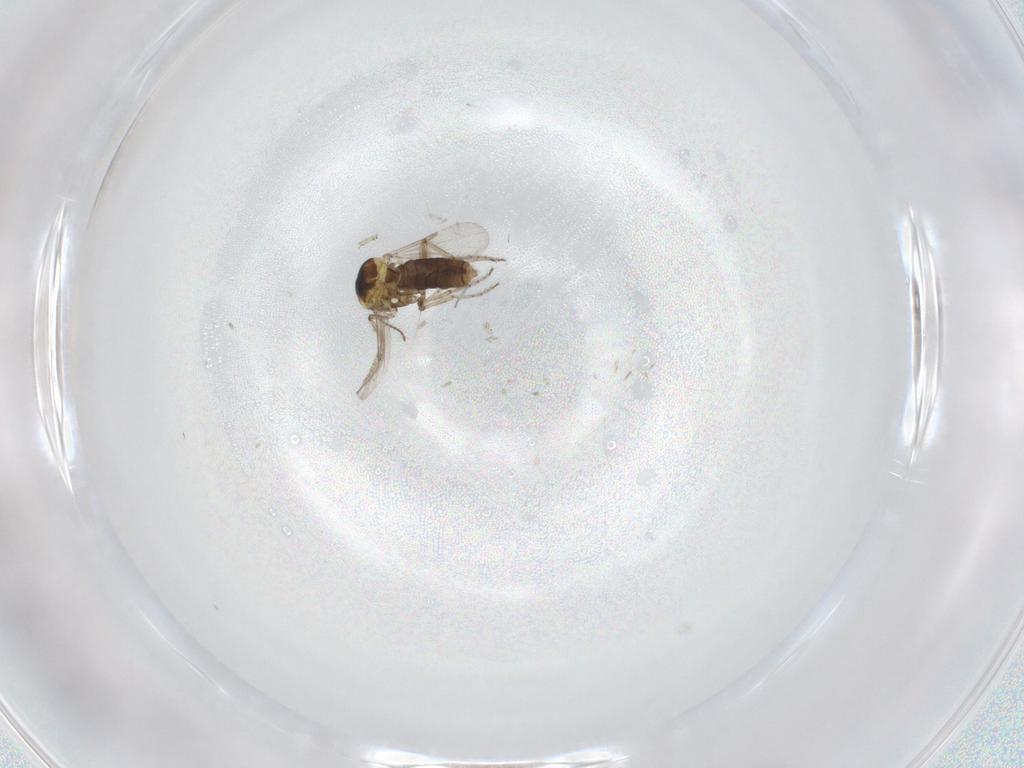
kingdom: Animalia
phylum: Arthropoda
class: Insecta
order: Diptera
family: Ceratopogonidae
